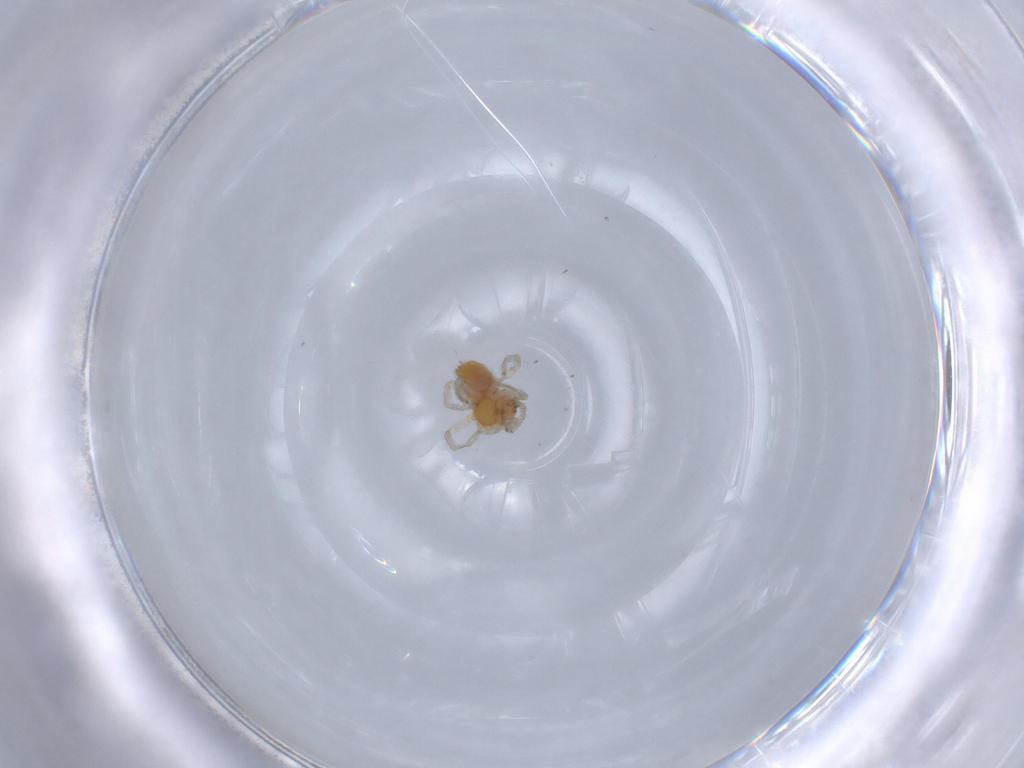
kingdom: Animalia
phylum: Arthropoda
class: Arachnida
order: Araneae
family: Dictynidae
